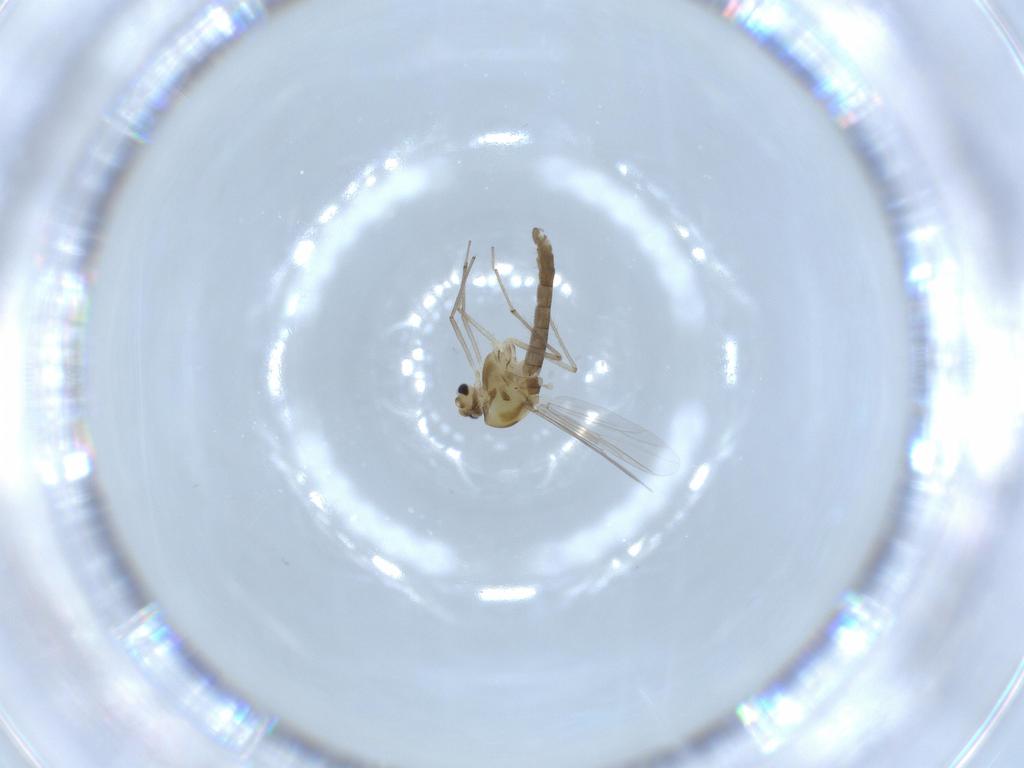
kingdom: Animalia
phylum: Arthropoda
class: Insecta
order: Diptera
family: Chironomidae
